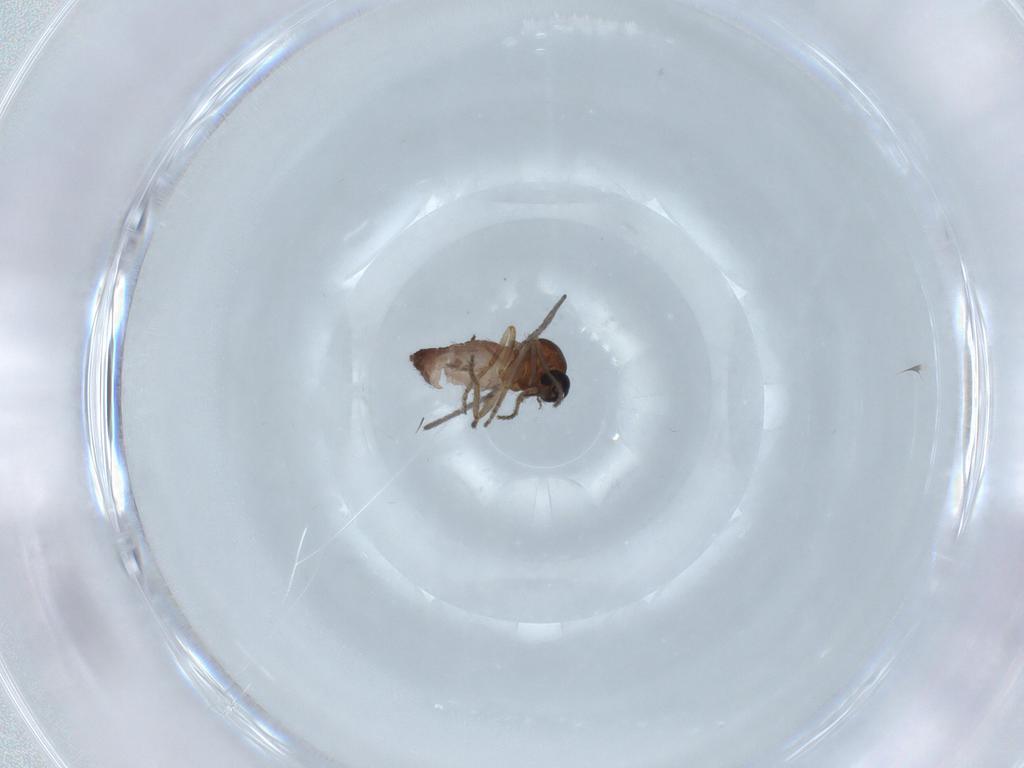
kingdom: Animalia
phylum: Arthropoda
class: Insecta
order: Diptera
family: Ceratopogonidae
